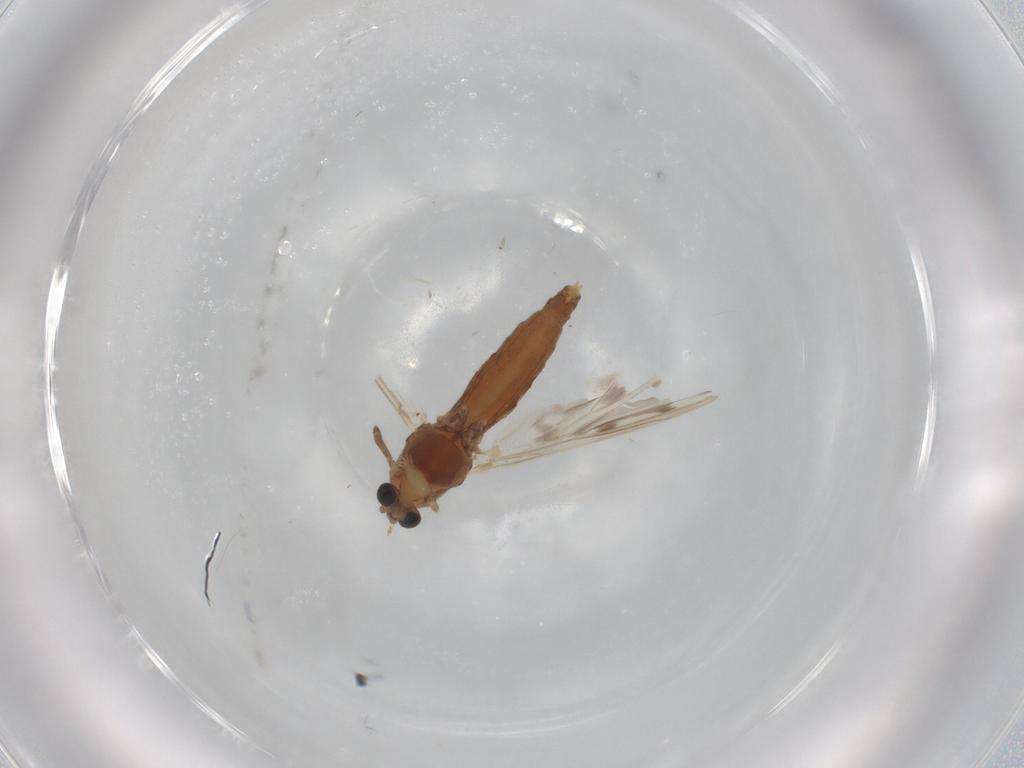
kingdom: Animalia
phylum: Arthropoda
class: Insecta
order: Diptera
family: Chironomidae
